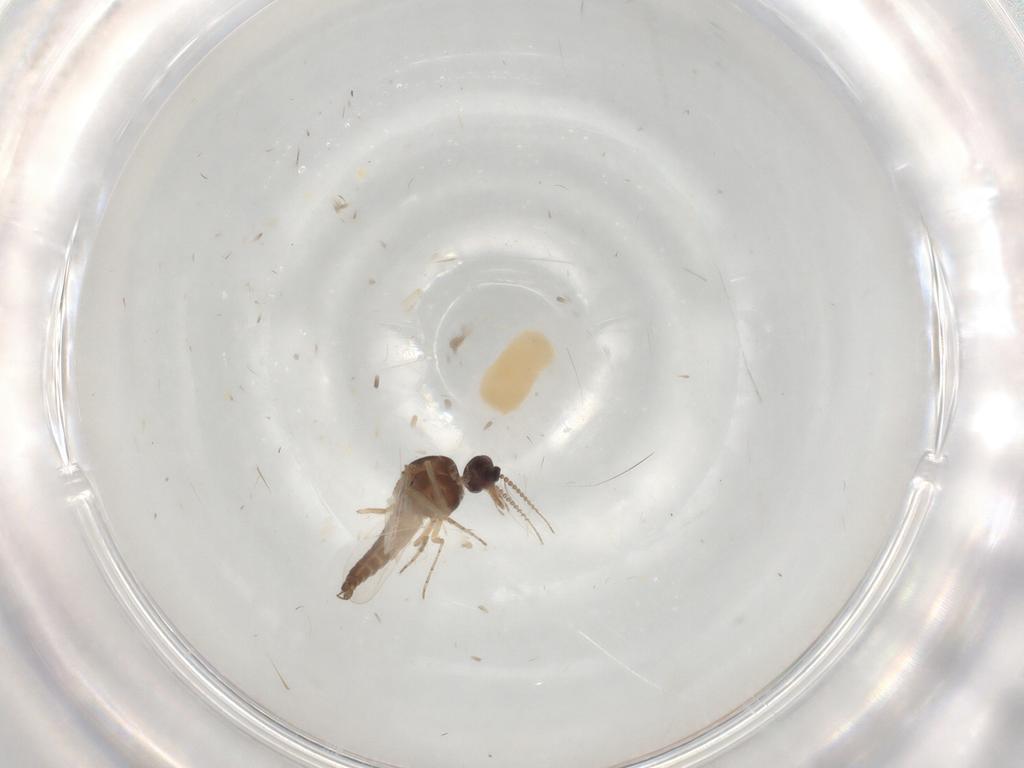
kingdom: Animalia
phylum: Arthropoda
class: Insecta
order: Diptera
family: Ceratopogonidae
